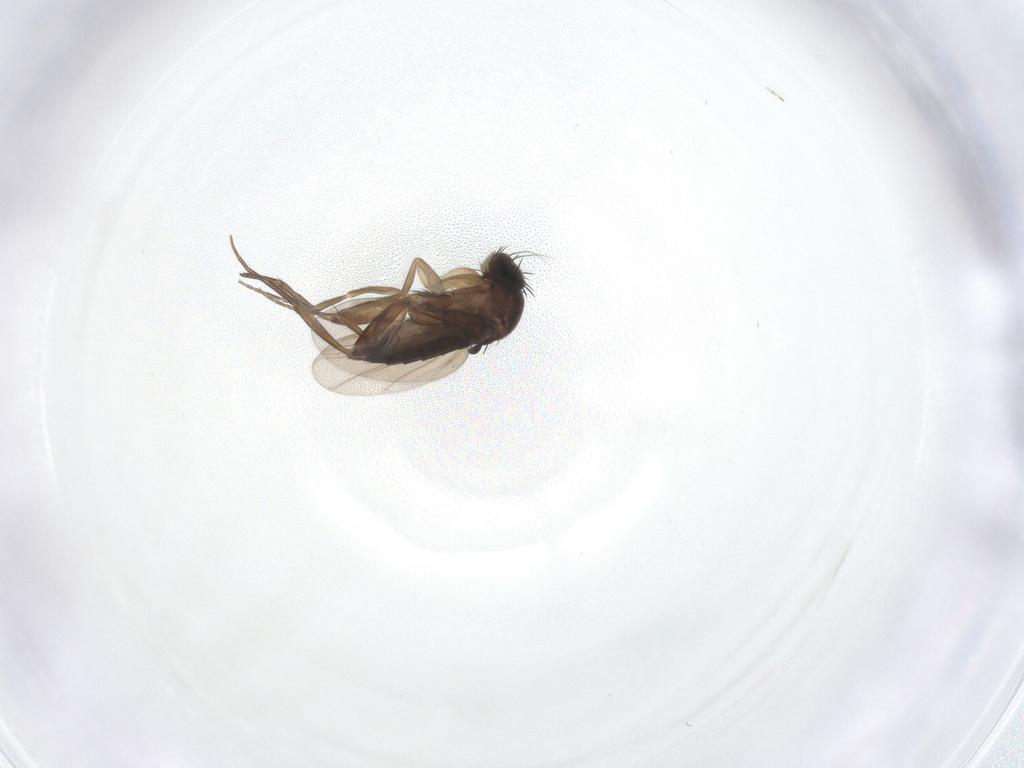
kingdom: Animalia
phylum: Arthropoda
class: Insecta
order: Diptera
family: Phoridae
